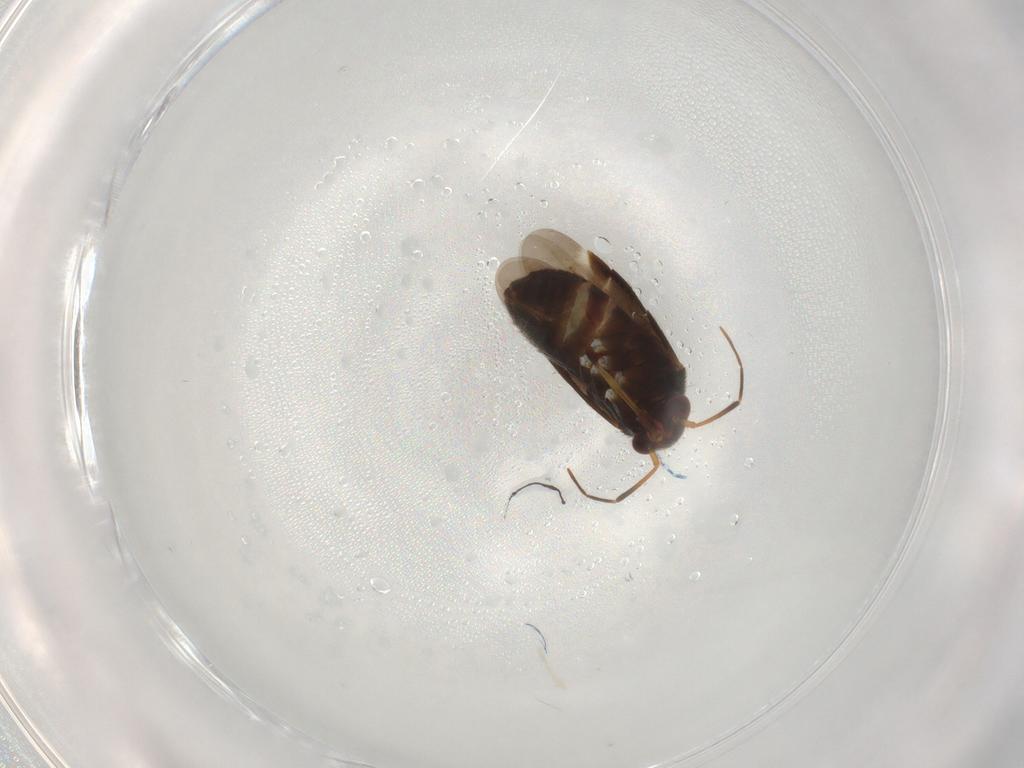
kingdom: Animalia
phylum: Arthropoda
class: Insecta
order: Hemiptera
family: Miridae
